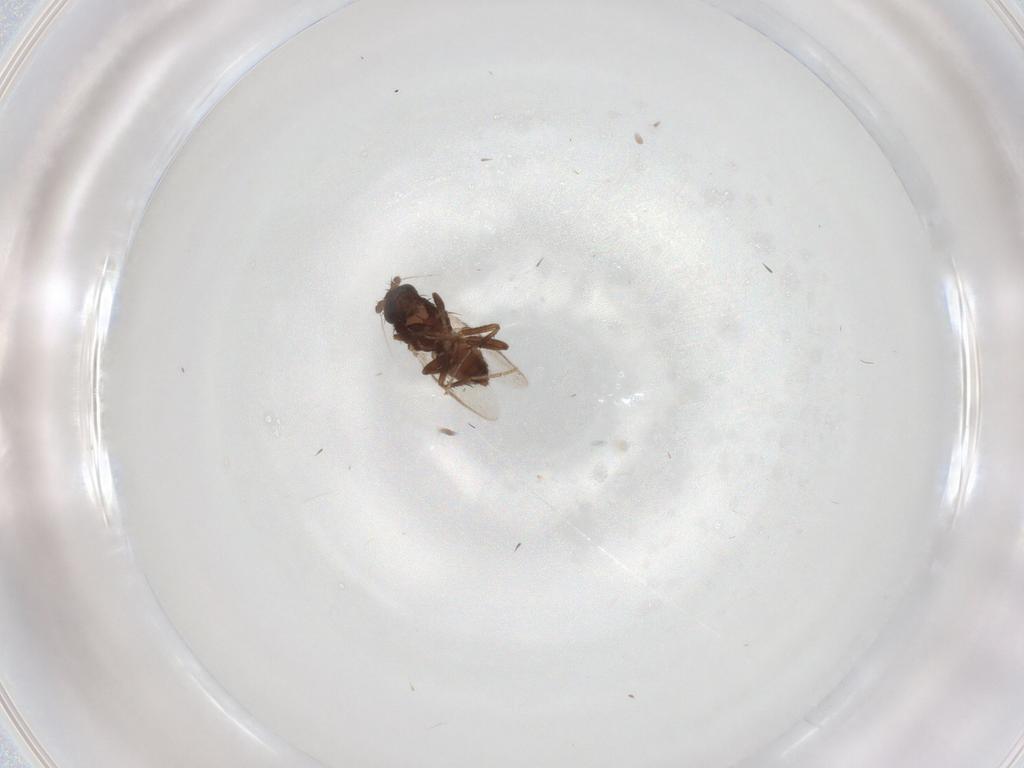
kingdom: Animalia
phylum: Arthropoda
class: Insecta
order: Diptera
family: Sphaeroceridae
